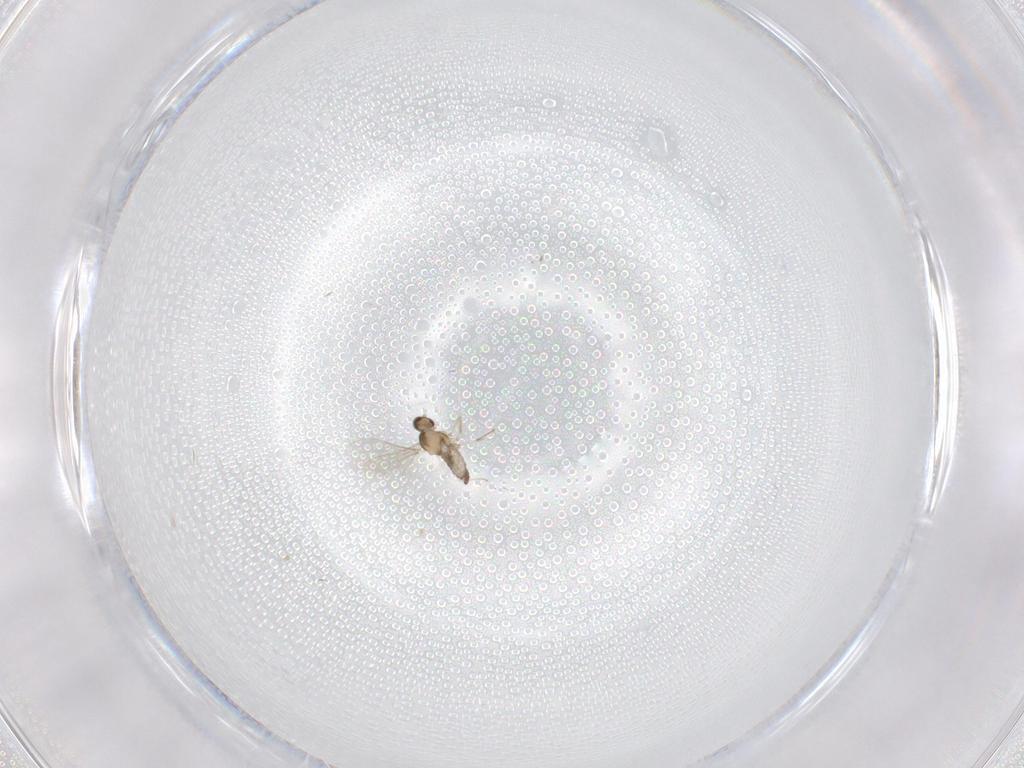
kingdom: Animalia
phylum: Arthropoda
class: Insecta
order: Diptera
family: Cecidomyiidae
